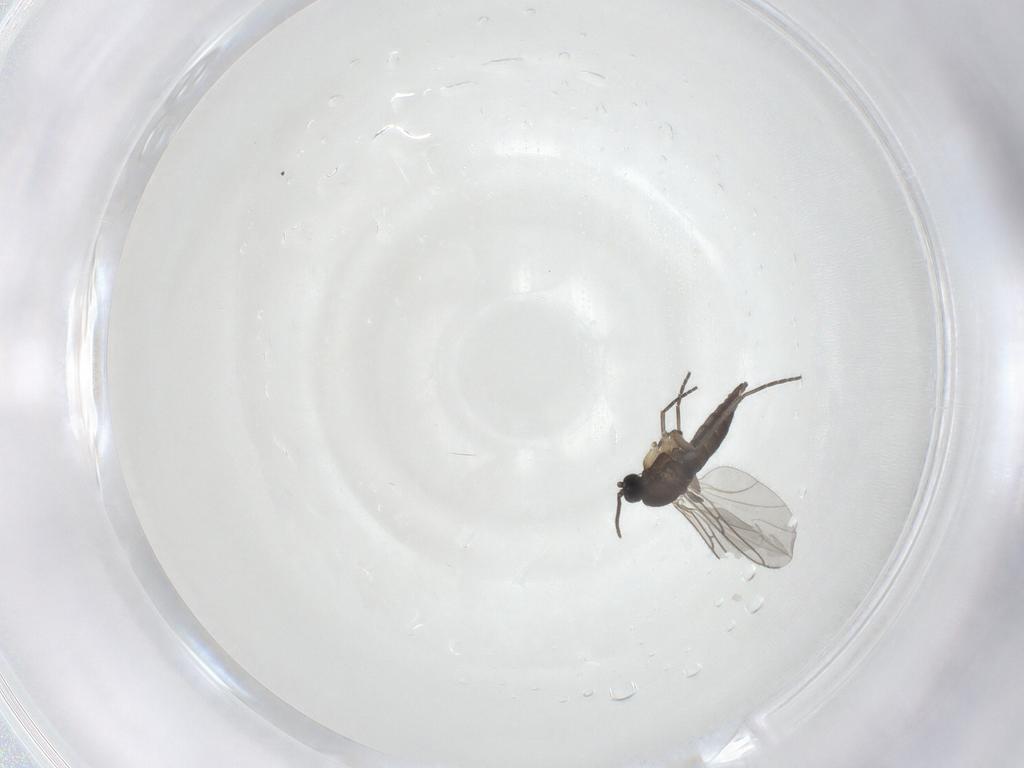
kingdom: Animalia
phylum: Arthropoda
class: Insecta
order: Diptera
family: Sciaridae
